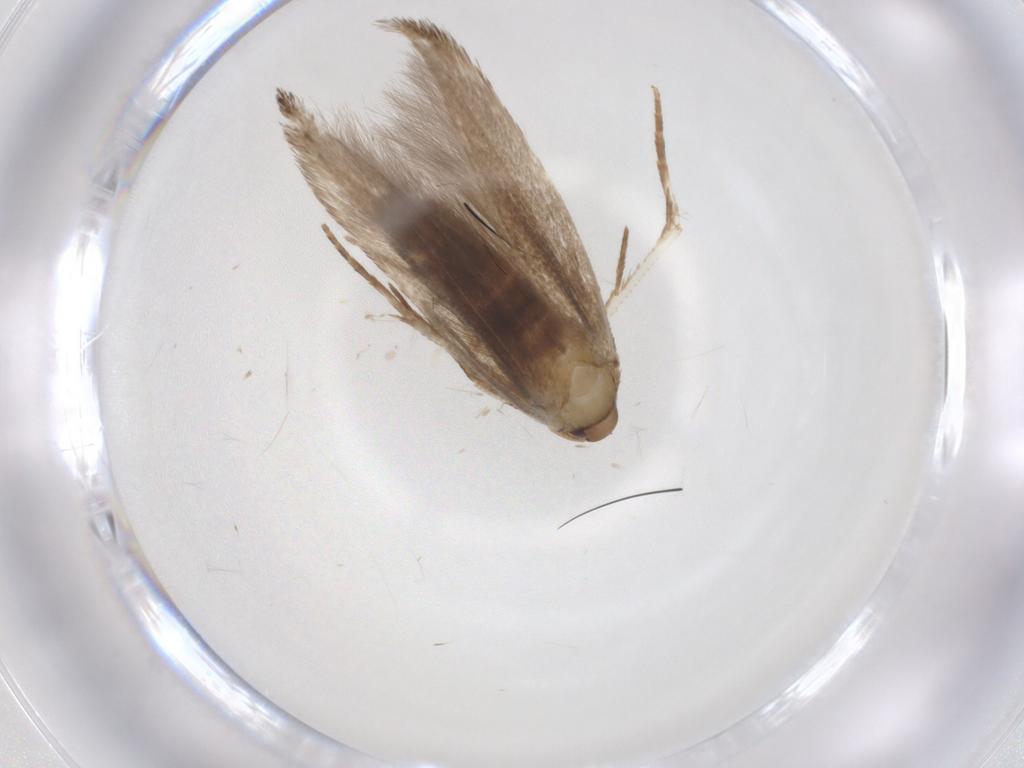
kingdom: Animalia
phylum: Arthropoda
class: Insecta
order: Lepidoptera
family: Cosmopterigidae
